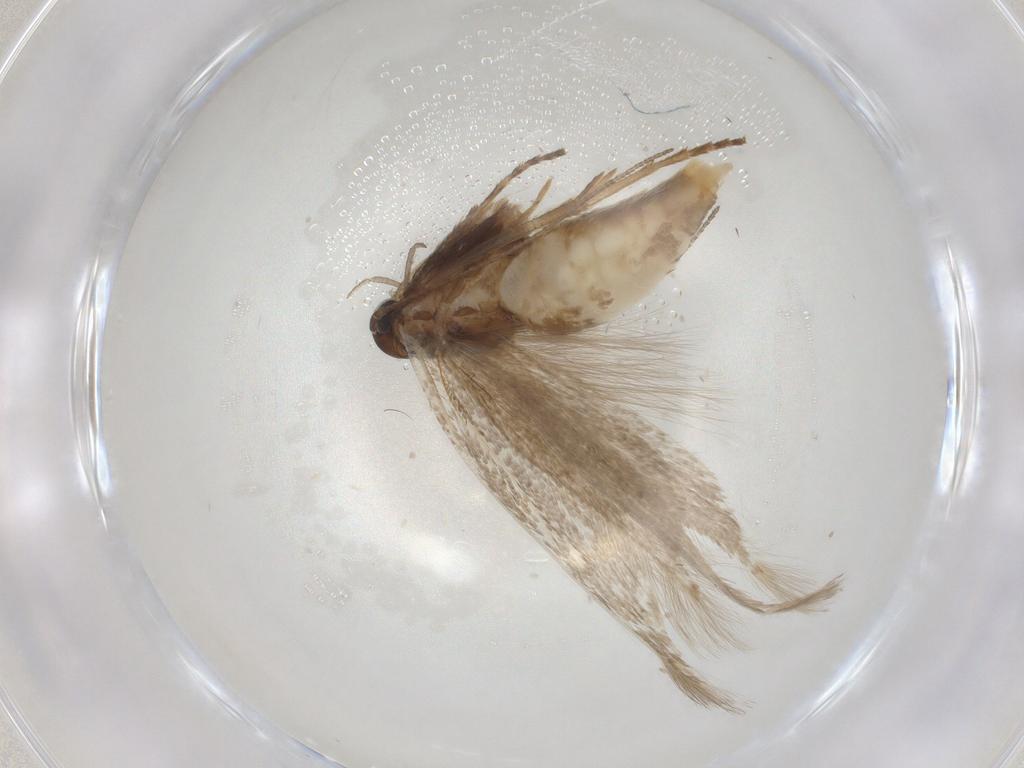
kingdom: Animalia
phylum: Arthropoda
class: Insecta
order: Lepidoptera
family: Gelechiidae
